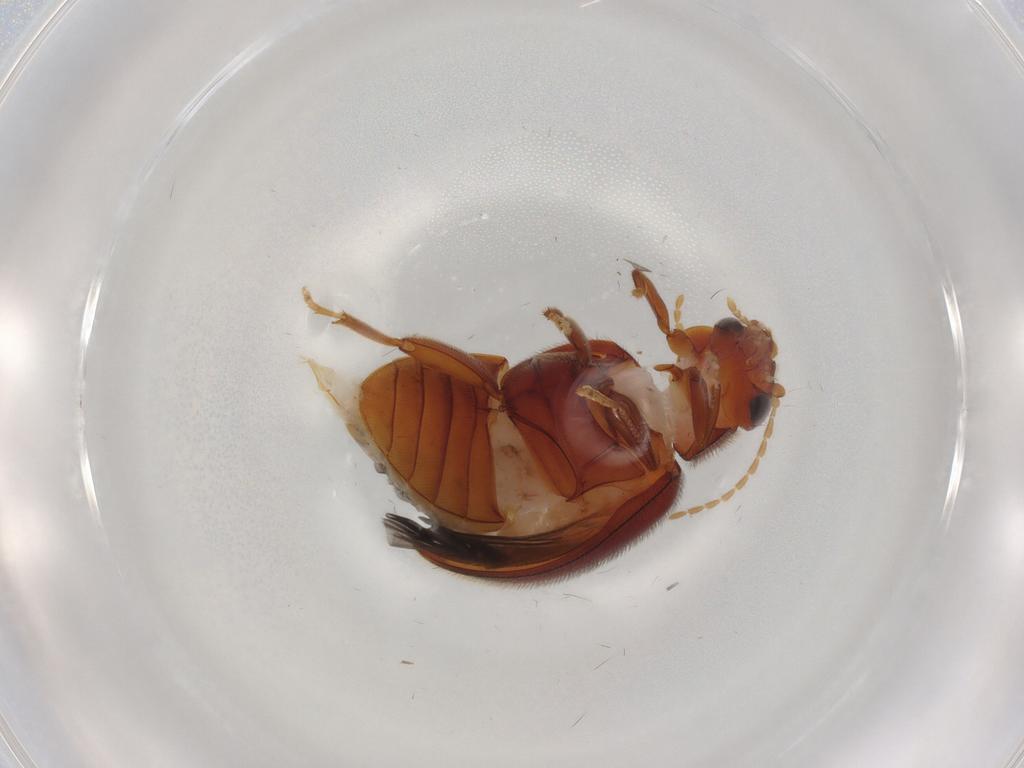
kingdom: Animalia
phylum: Arthropoda
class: Insecta
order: Coleoptera
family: Scirtidae
